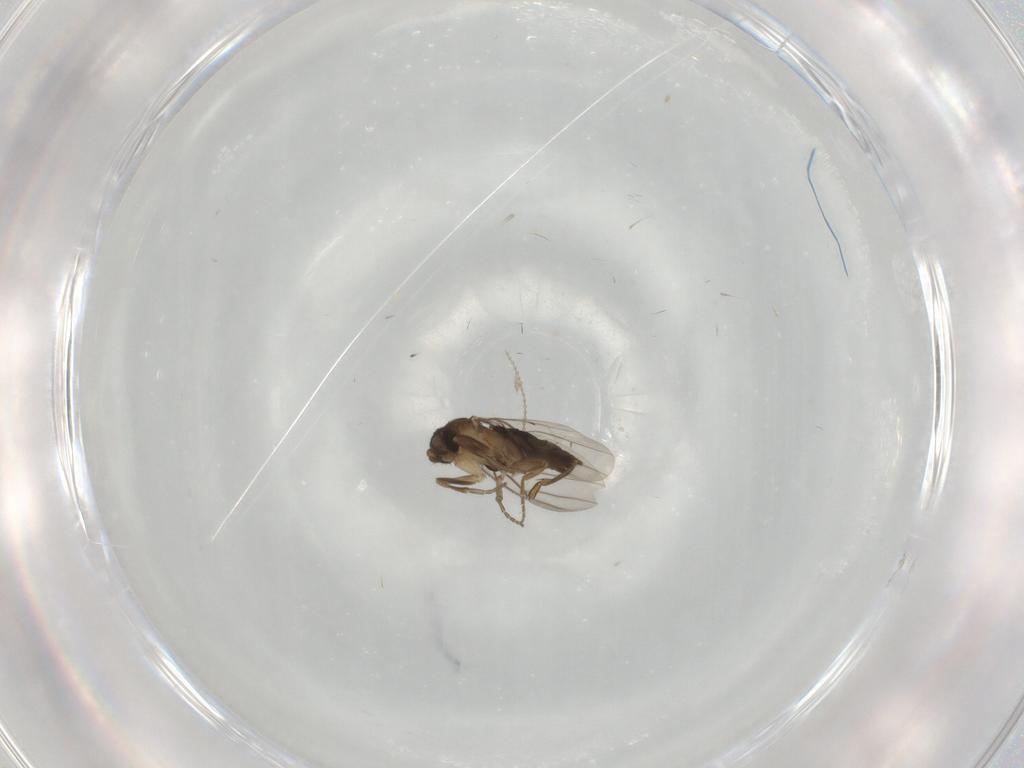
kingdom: Animalia
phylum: Arthropoda
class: Insecta
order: Diptera
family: Phoridae
